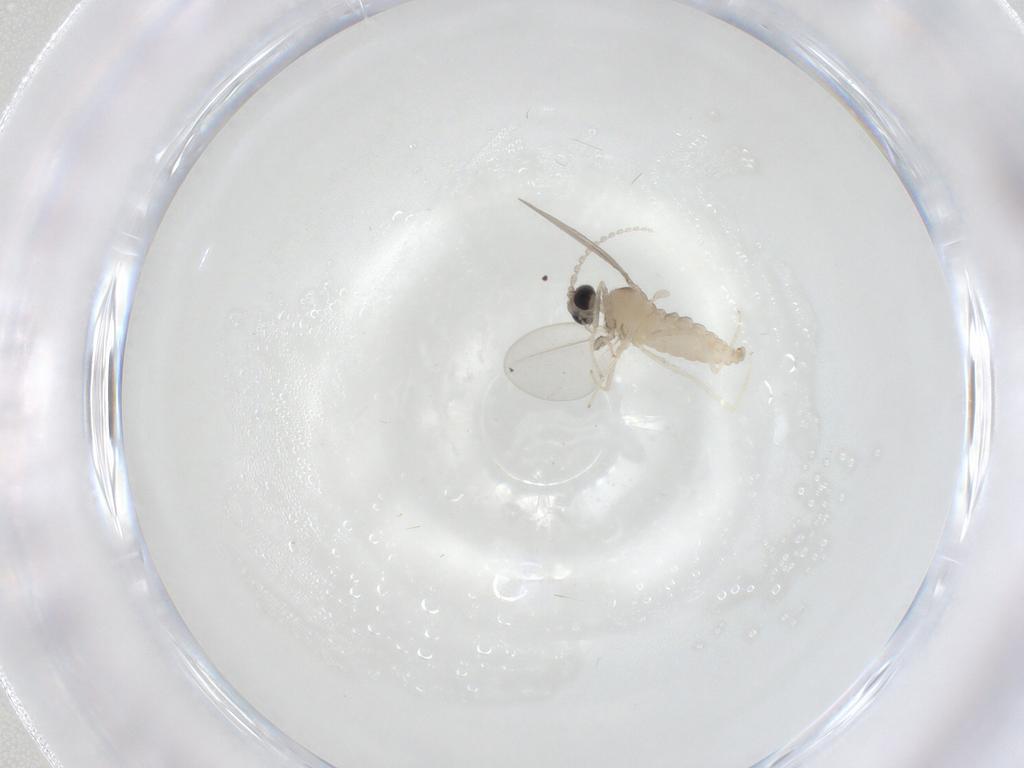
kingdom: Animalia
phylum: Arthropoda
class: Insecta
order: Diptera
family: Cecidomyiidae
